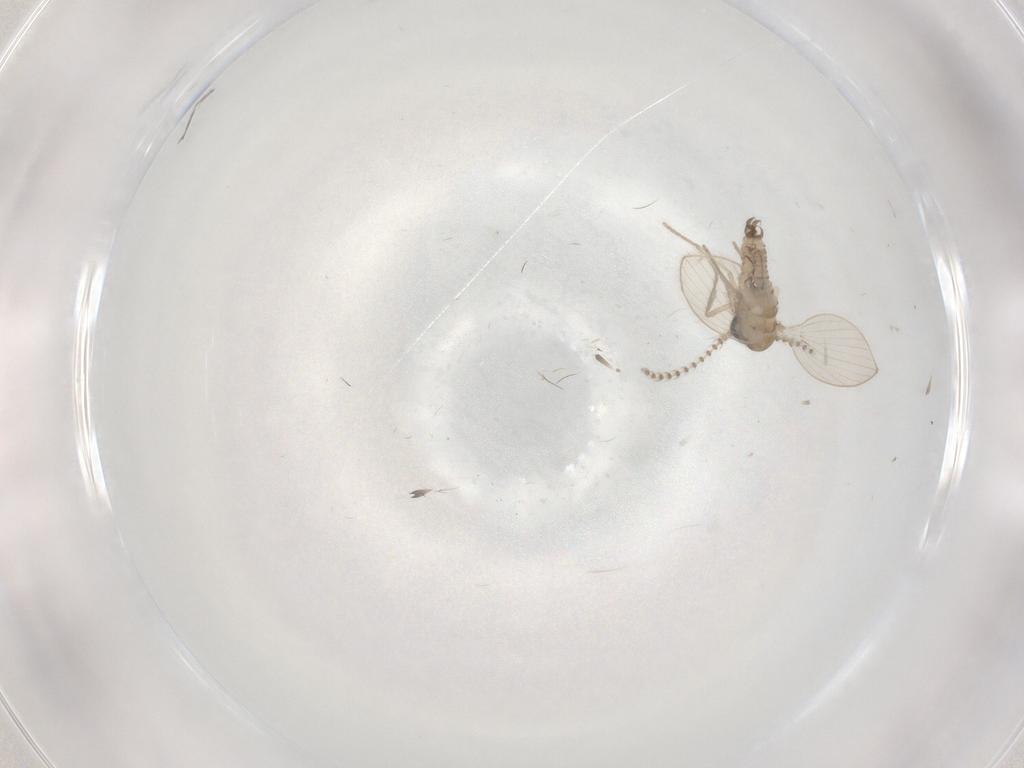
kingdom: Animalia
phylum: Arthropoda
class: Insecta
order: Diptera
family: Psychodidae
